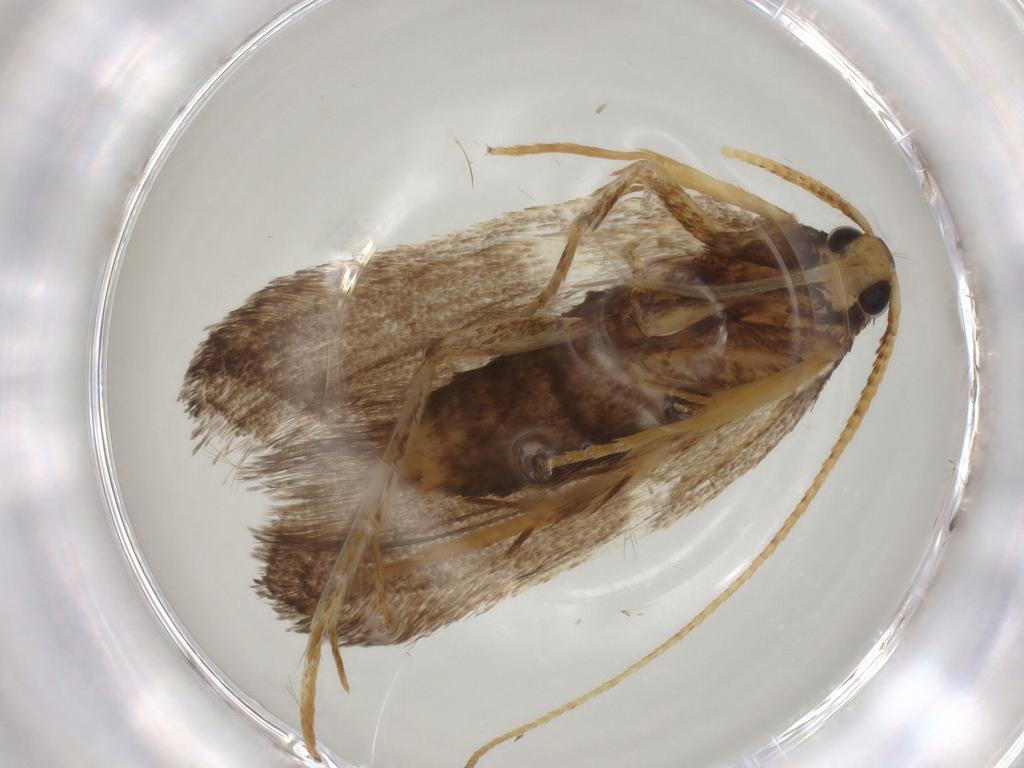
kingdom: Animalia
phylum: Arthropoda
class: Insecta
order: Lepidoptera
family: Lecithoceridae
